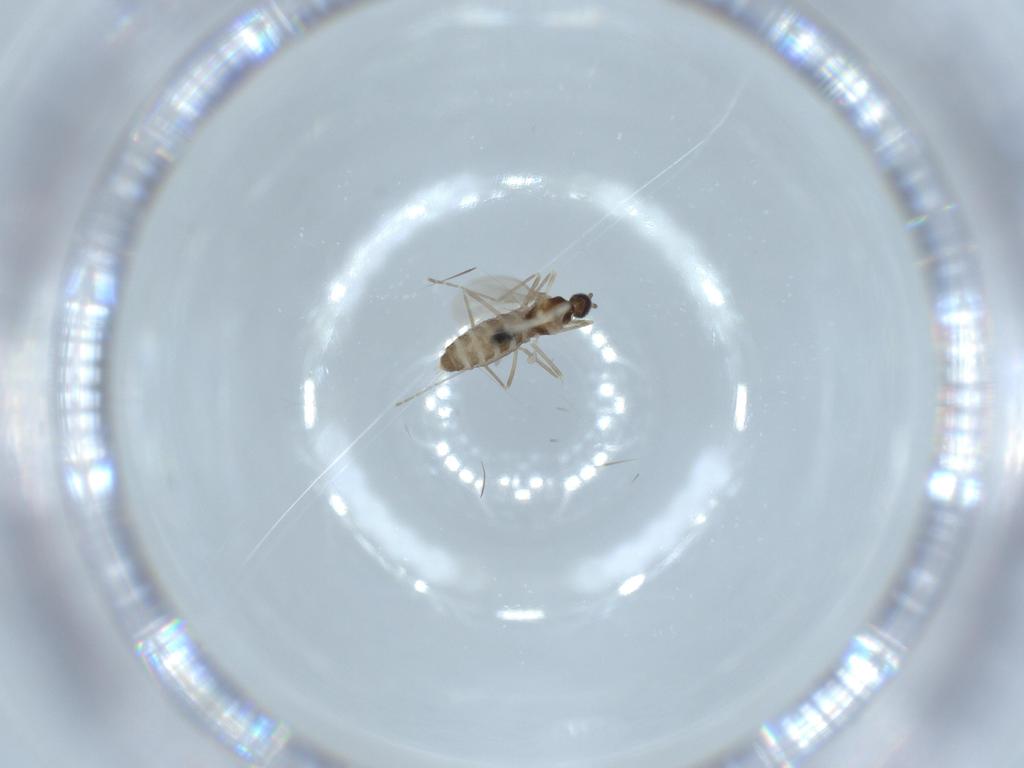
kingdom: Animalia
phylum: Arthropoda
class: Insecta
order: Diptera
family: Cecidomyiidae
